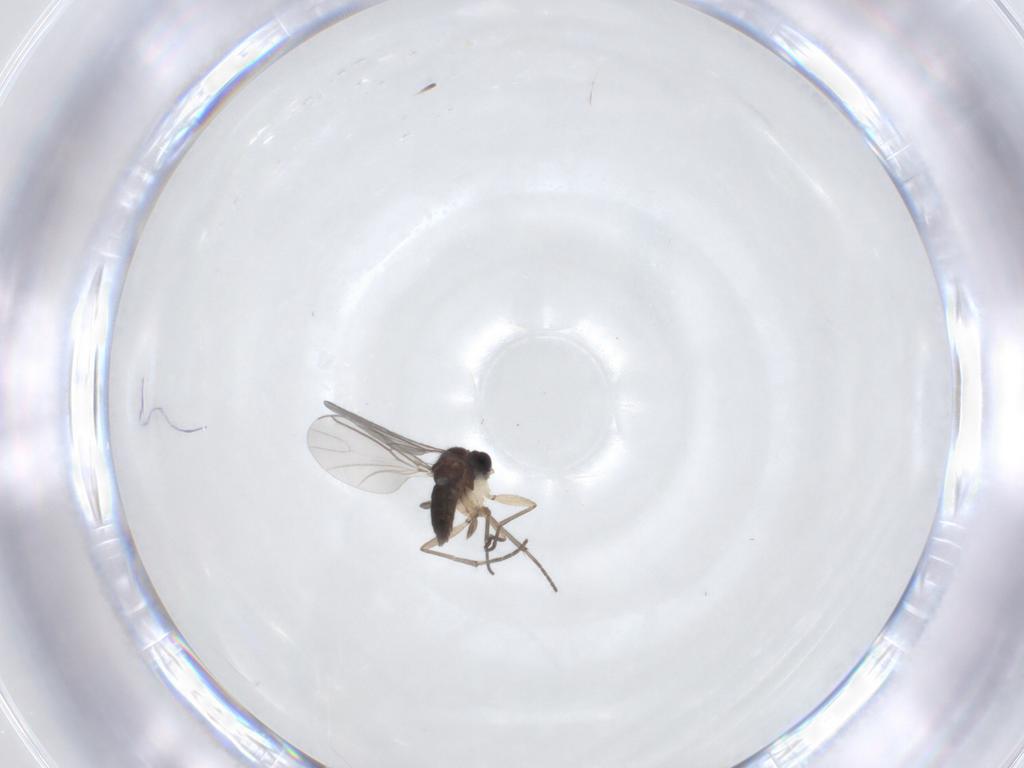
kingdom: Animalia
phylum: Arthropoda
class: Insecta
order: Diptera
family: Sciaridae
